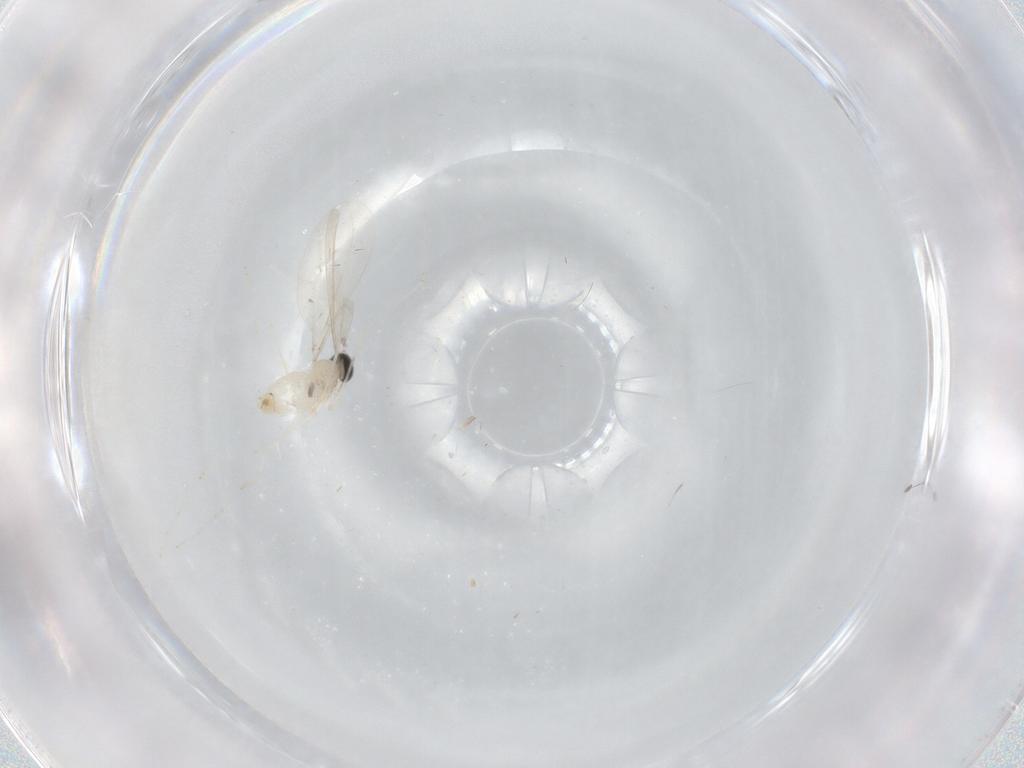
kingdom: Animalia
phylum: Arthropoda
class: Insecta
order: Diptera
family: Cecidomyiidae
